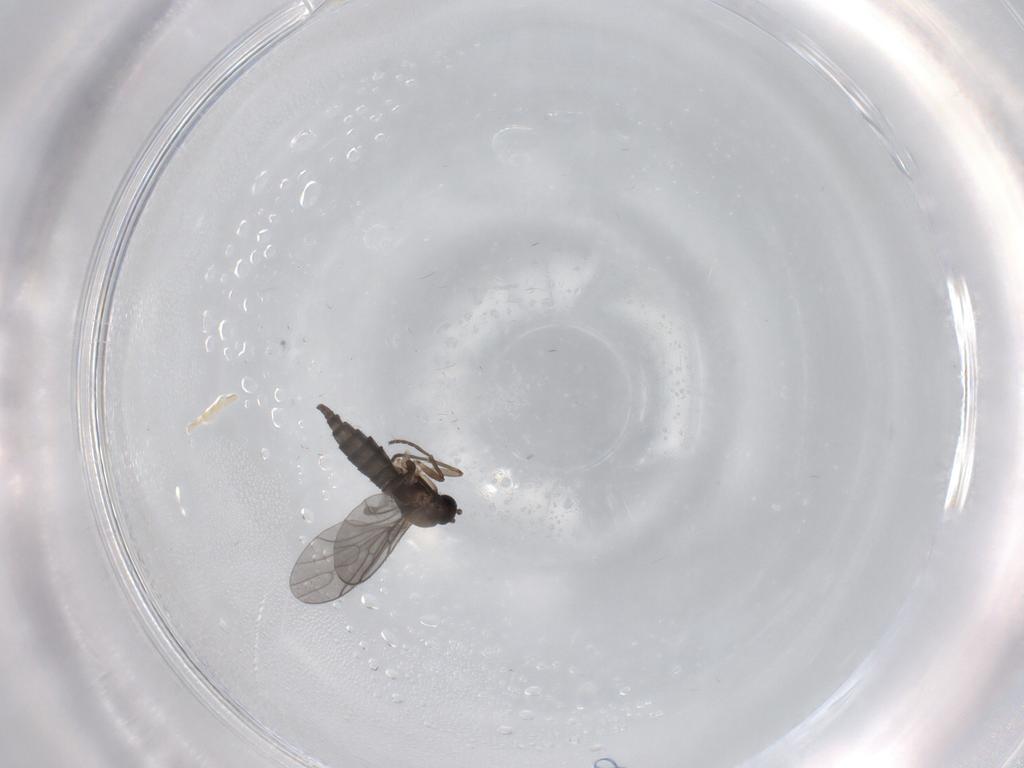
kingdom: Animalia
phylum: Arthropoda
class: Insecta
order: Diptera
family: Sciaridae
